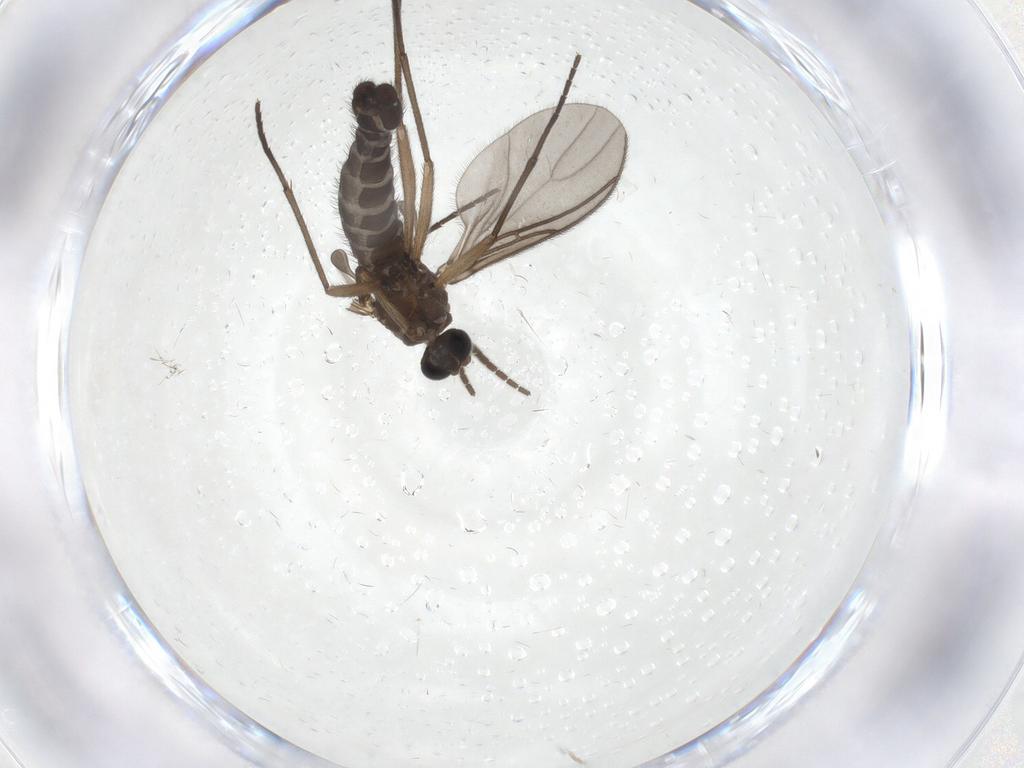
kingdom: Animalia
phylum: Arthropoda
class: Insecta
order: Diptera
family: Sciaridae
